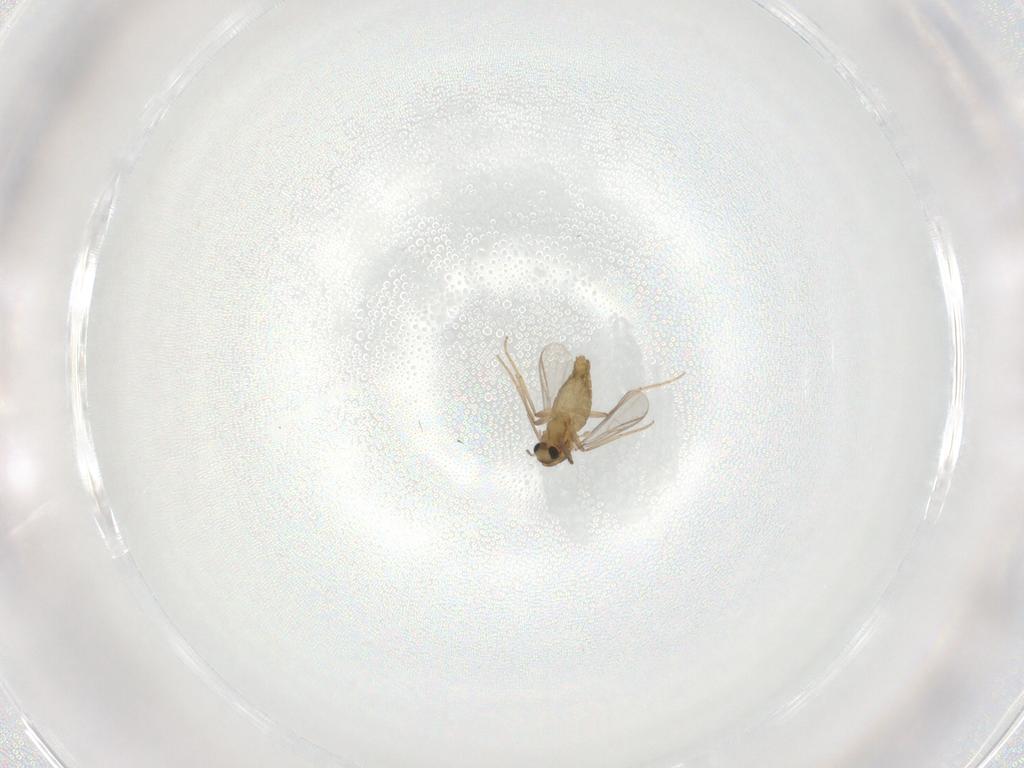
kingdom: Animalia
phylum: Arthropoda
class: Insecta
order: Diptera
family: Chironomidae
